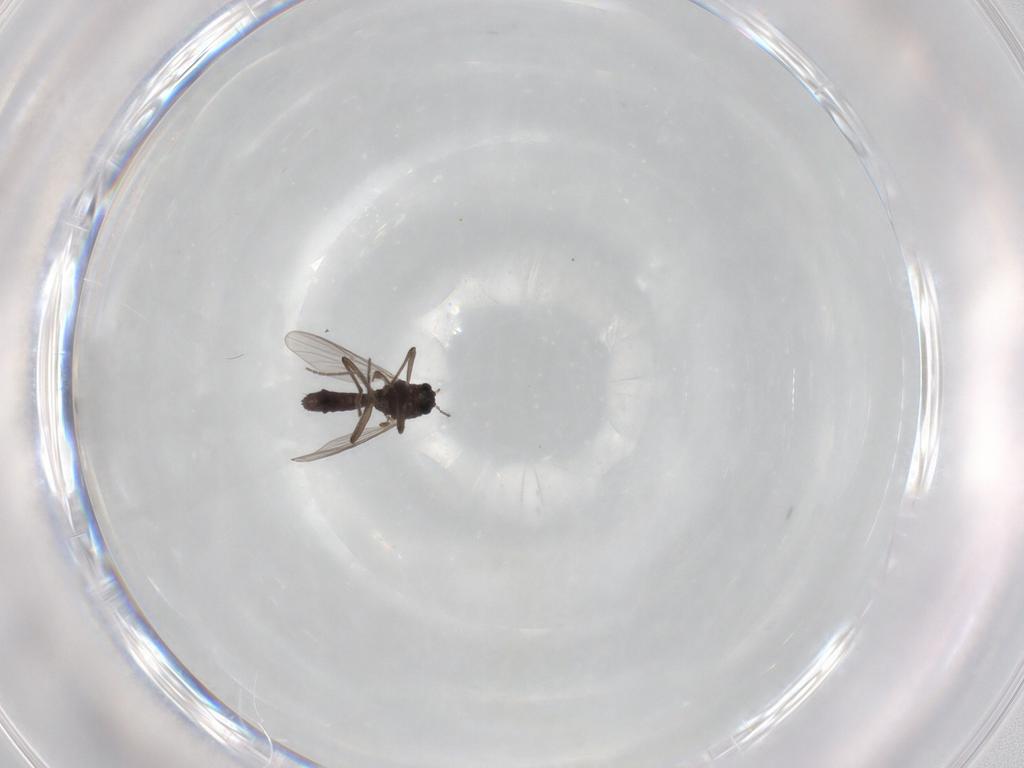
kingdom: Animalia
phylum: Arthropoda
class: Insecta
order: Diptera
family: Chironomidae
